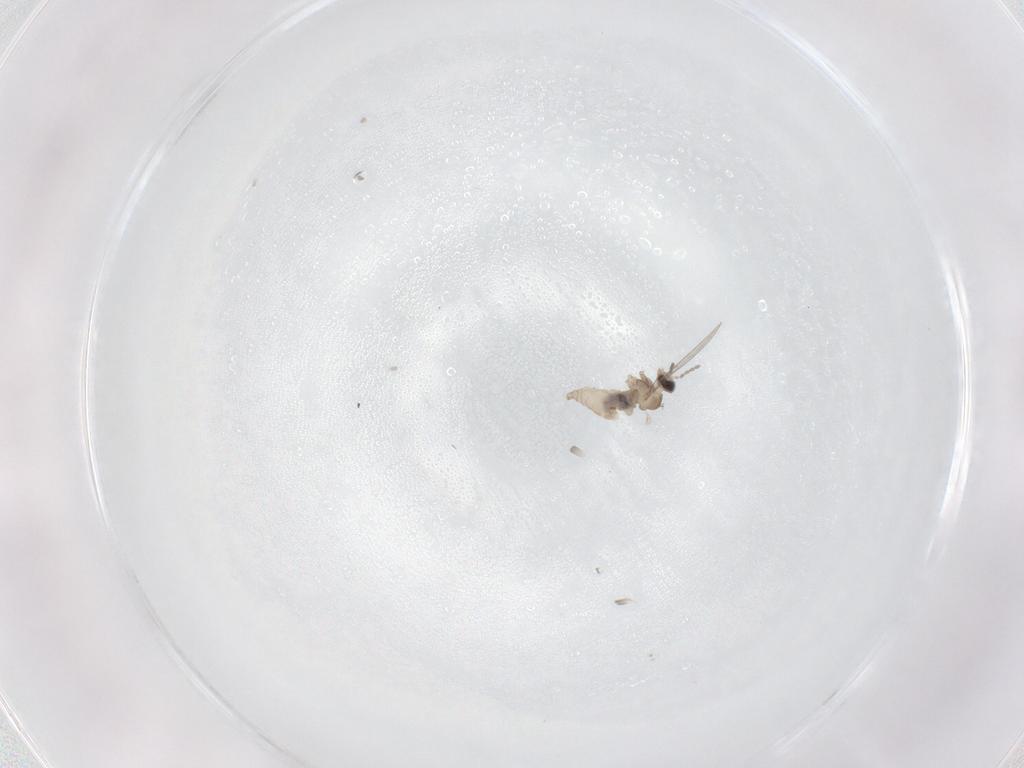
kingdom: Animalia
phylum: Arthropoda
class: Insecta
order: Diptera
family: Cecidomyiidae
